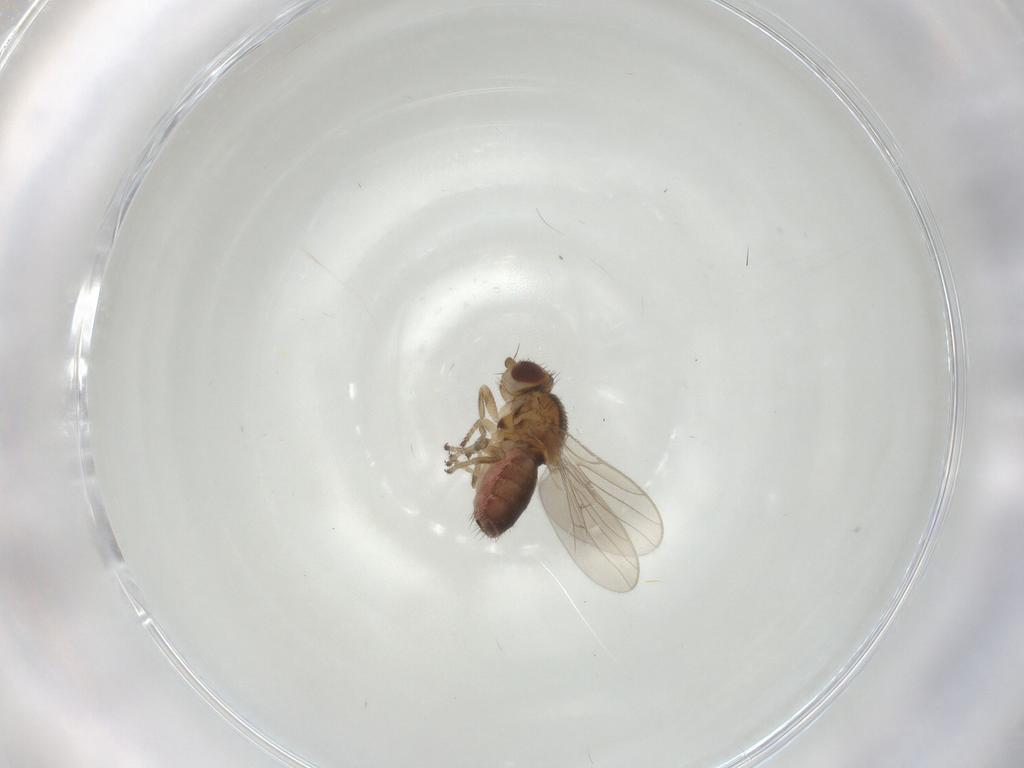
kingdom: Animalia
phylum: Arthropoda
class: Insecta
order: Diptera
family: Chloropidae
